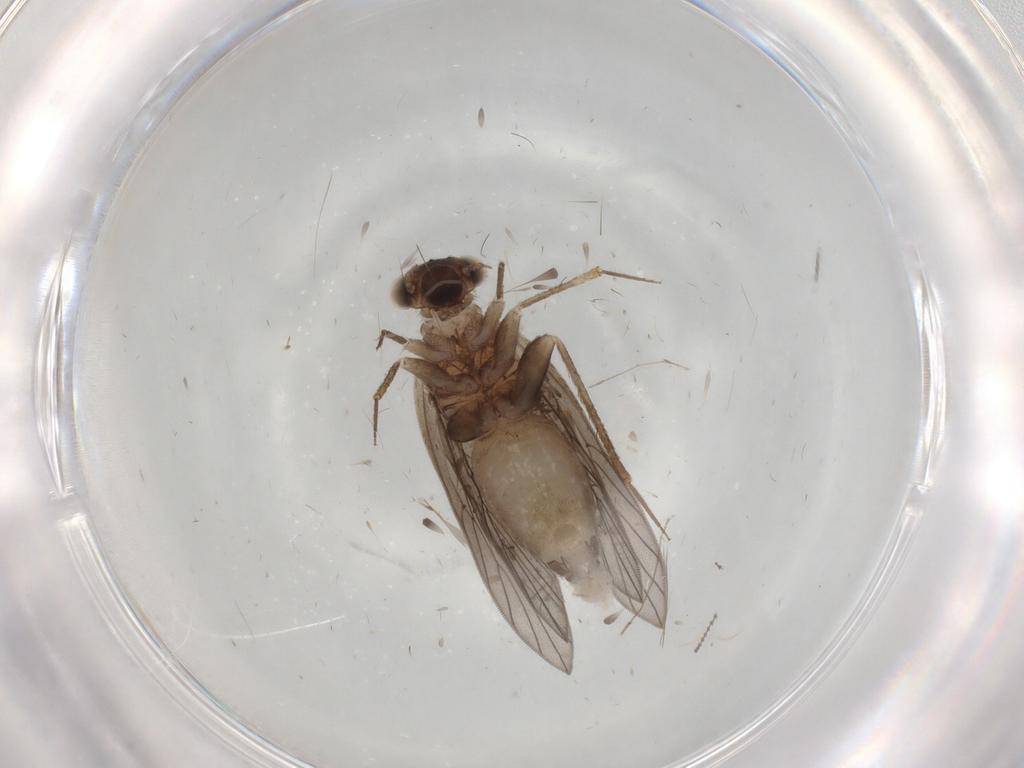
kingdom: Animalia
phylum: Arthropoda
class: Insecta
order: Psocodea
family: Lepidopsocidae
